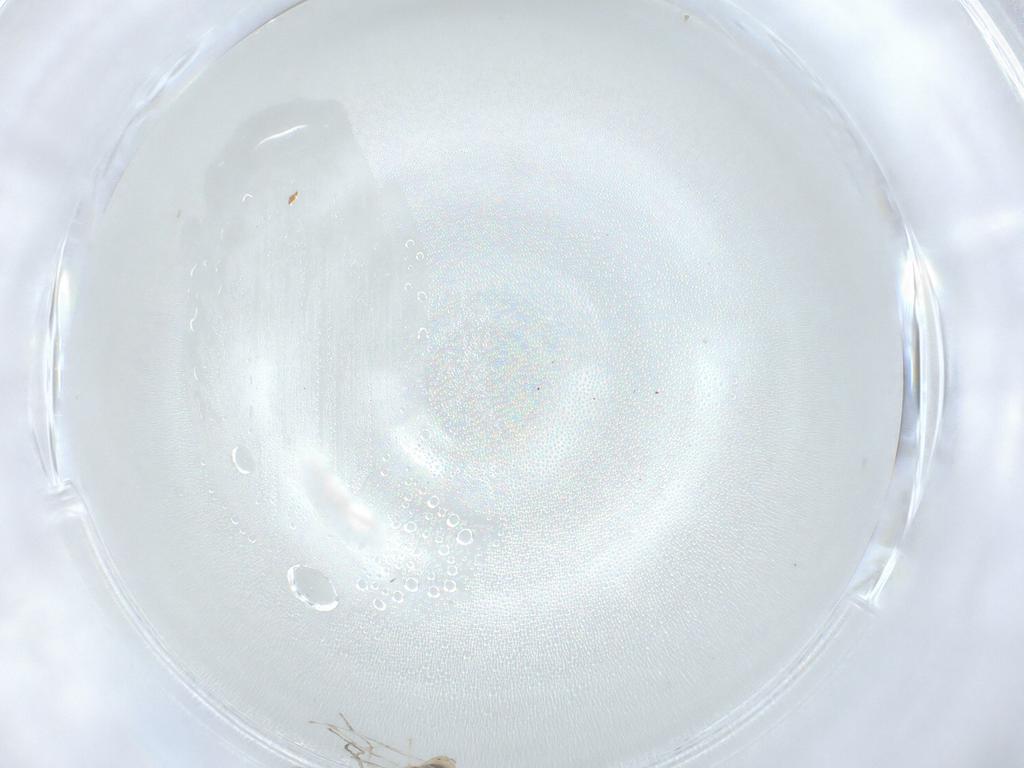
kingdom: Animalia
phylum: Arthropoda
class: Insecta
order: Diptera
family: Cecidomyiidae
